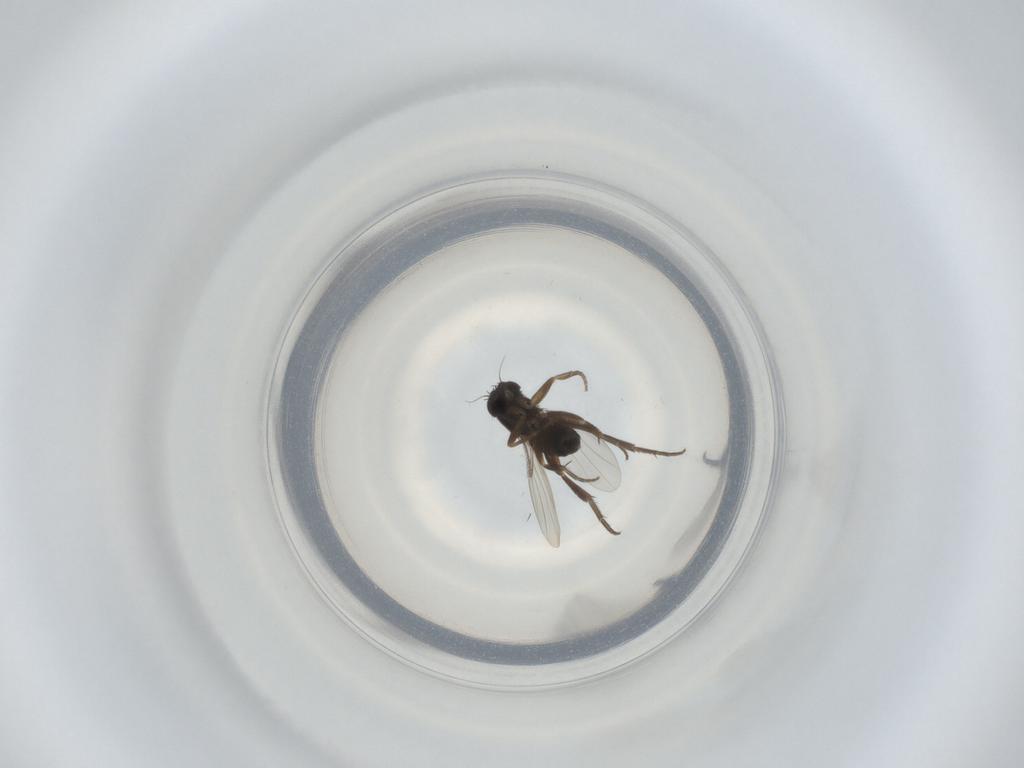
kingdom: Animalia
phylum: Arthropoda
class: Insecta
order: Diptera
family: Phoridae
